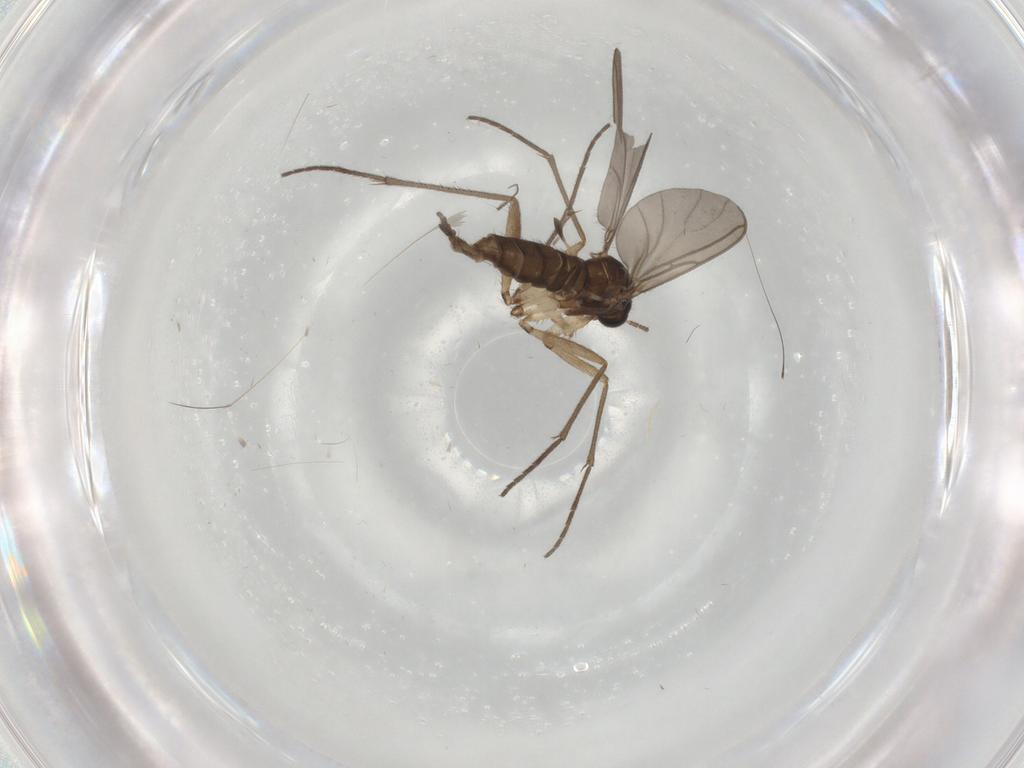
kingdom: Animalia
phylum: Arthropoda
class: Insecta
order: Diptera
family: Sciaridae
